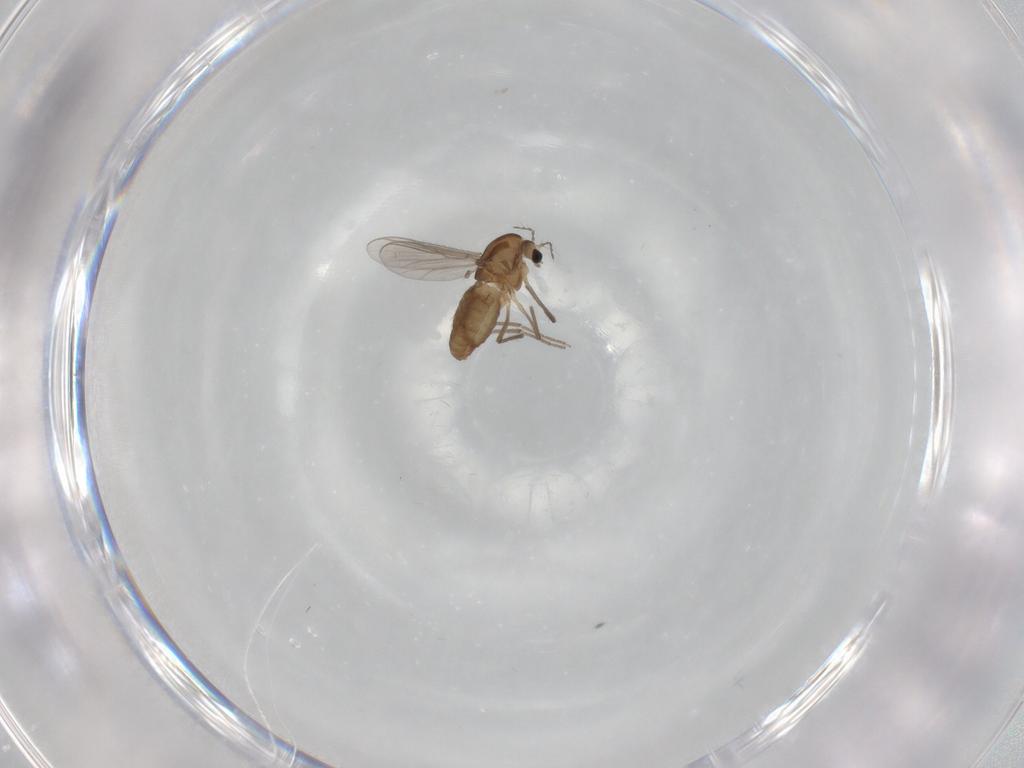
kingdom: Animalia
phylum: Arthropoda
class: Insecta
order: Diptera
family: Chironomidae
